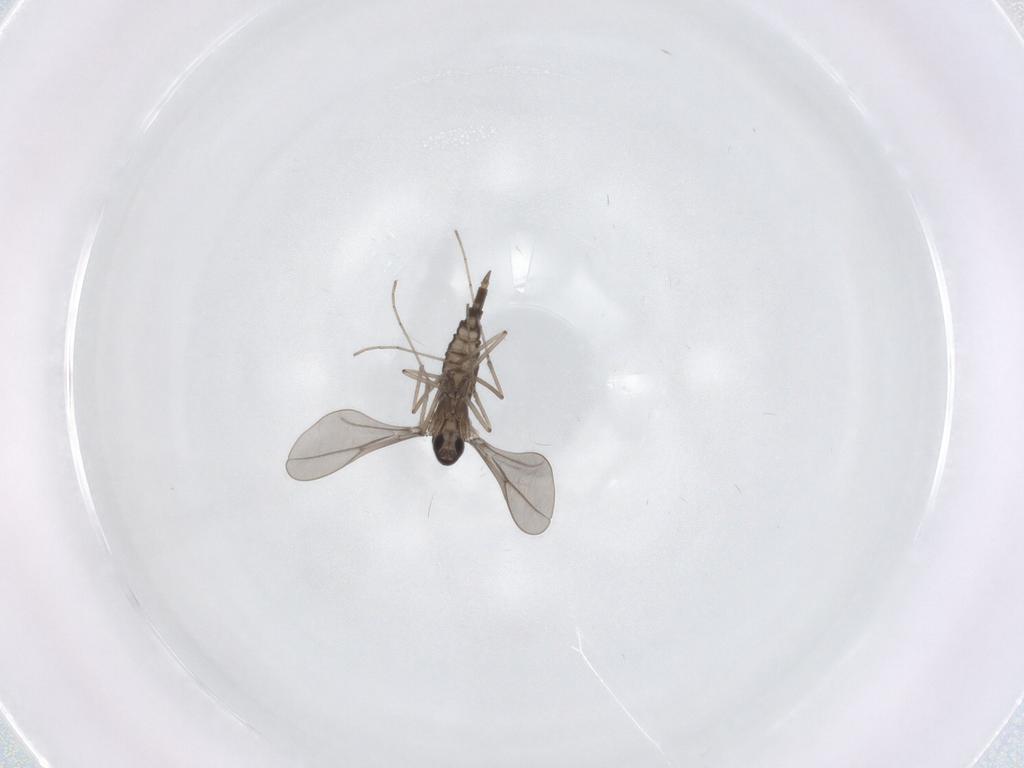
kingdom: Animalia
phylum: Arthropoda
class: Insecta
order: Diptera
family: Cecidomyiidae
